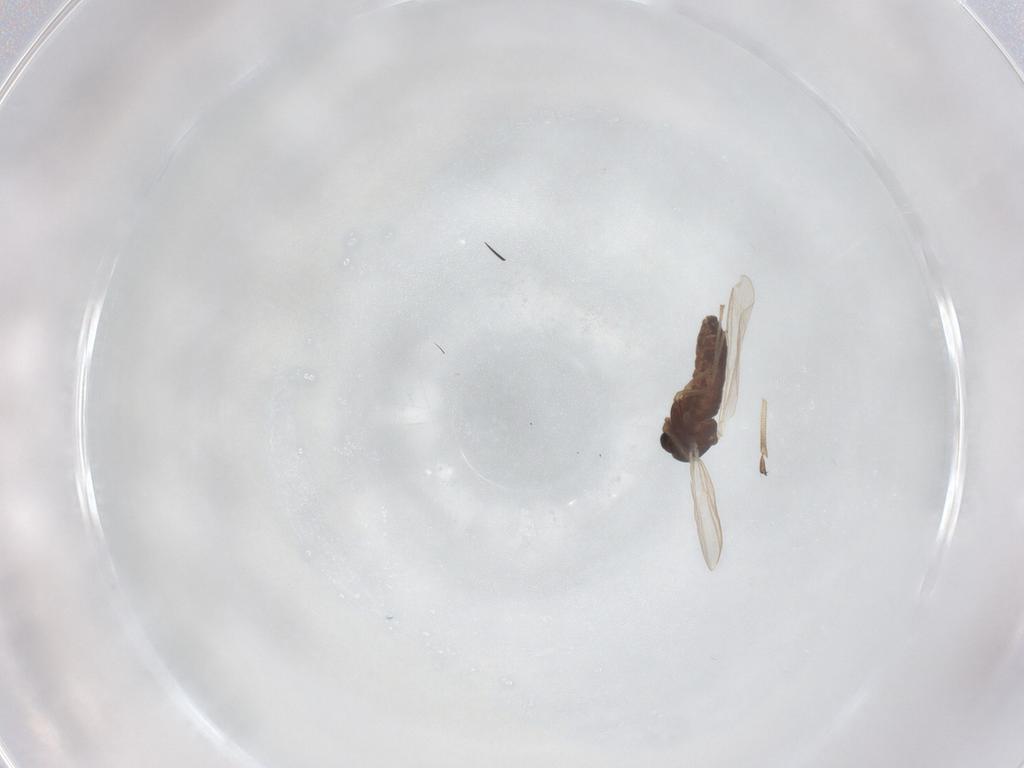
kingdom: Animalia
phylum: Arthropoda
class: Insecta
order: Diptera
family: Chironomidae
